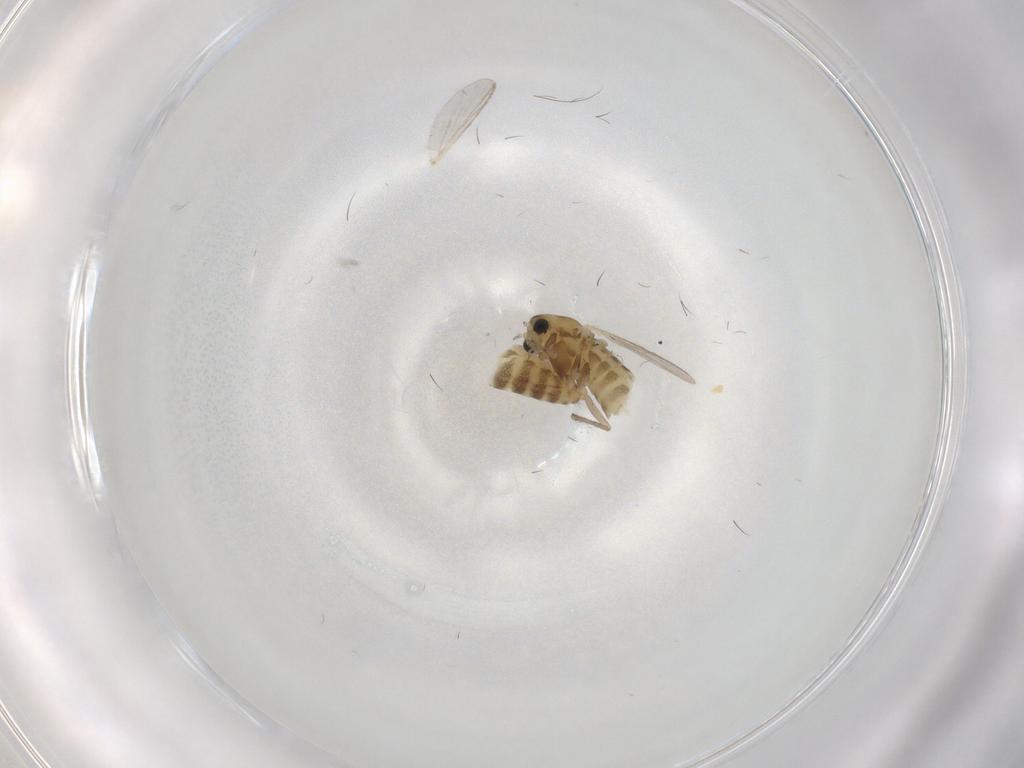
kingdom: Animalia
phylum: Arthropoda
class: Insecta
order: Diptera
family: Chironomidae
